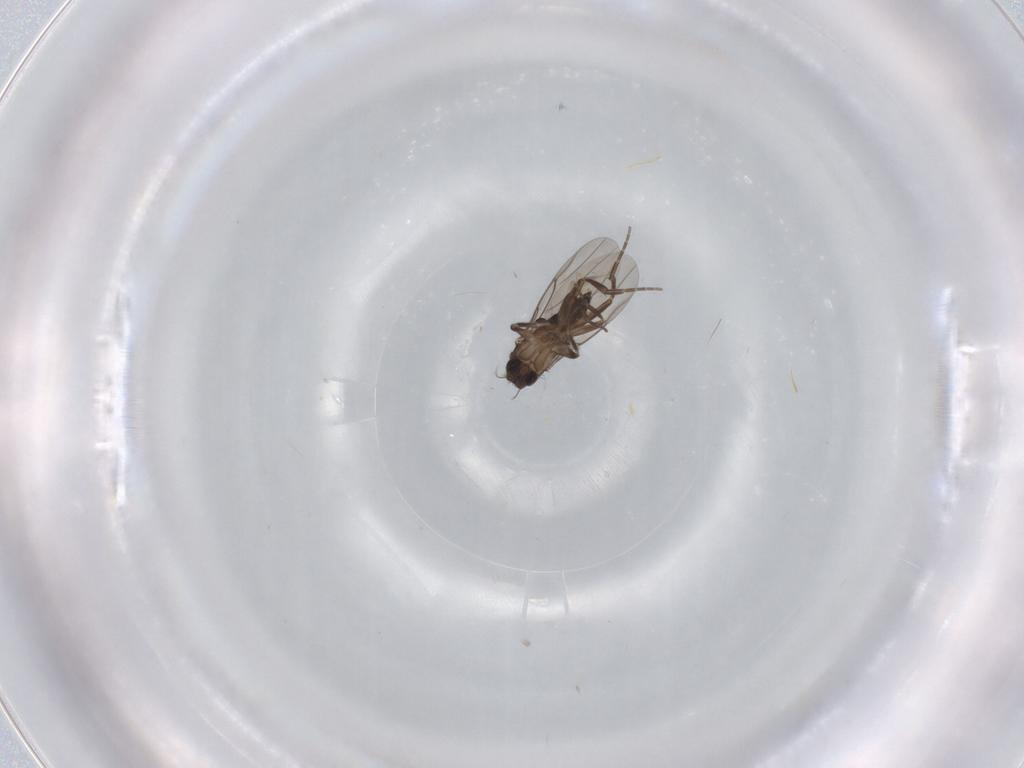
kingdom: Animalia
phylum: Arthropoda
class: Insecta
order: Diptera
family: Phoridae
